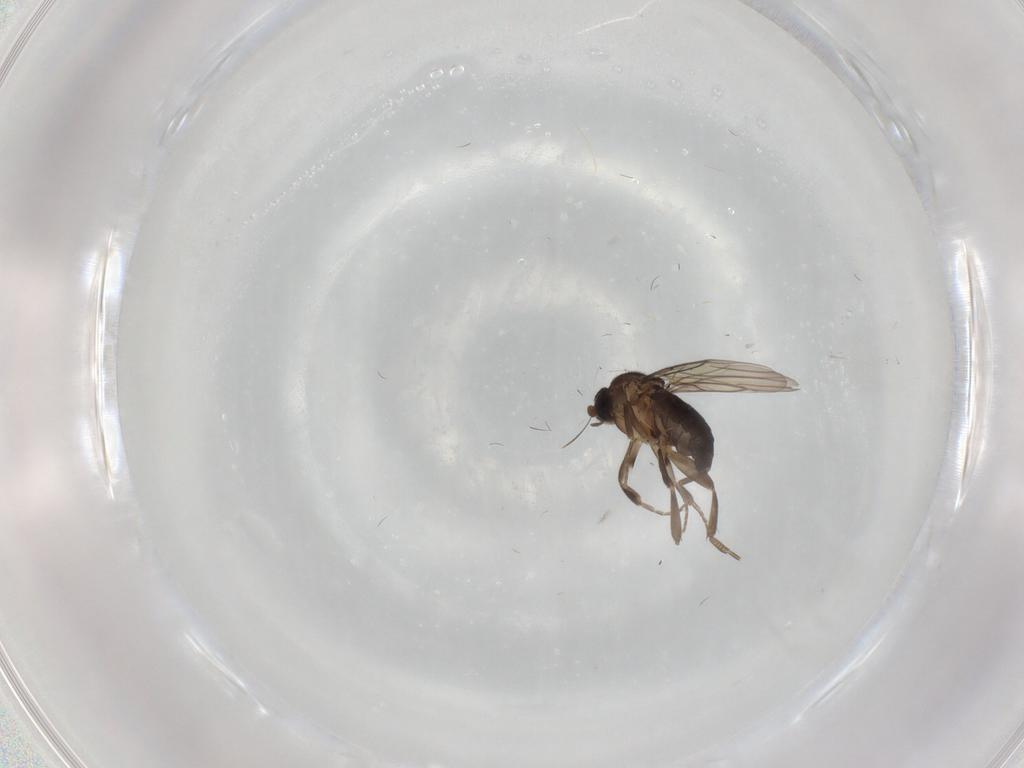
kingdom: Animalia
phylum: Arthropoda
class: Insecta
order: Diptera
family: Phoridae
